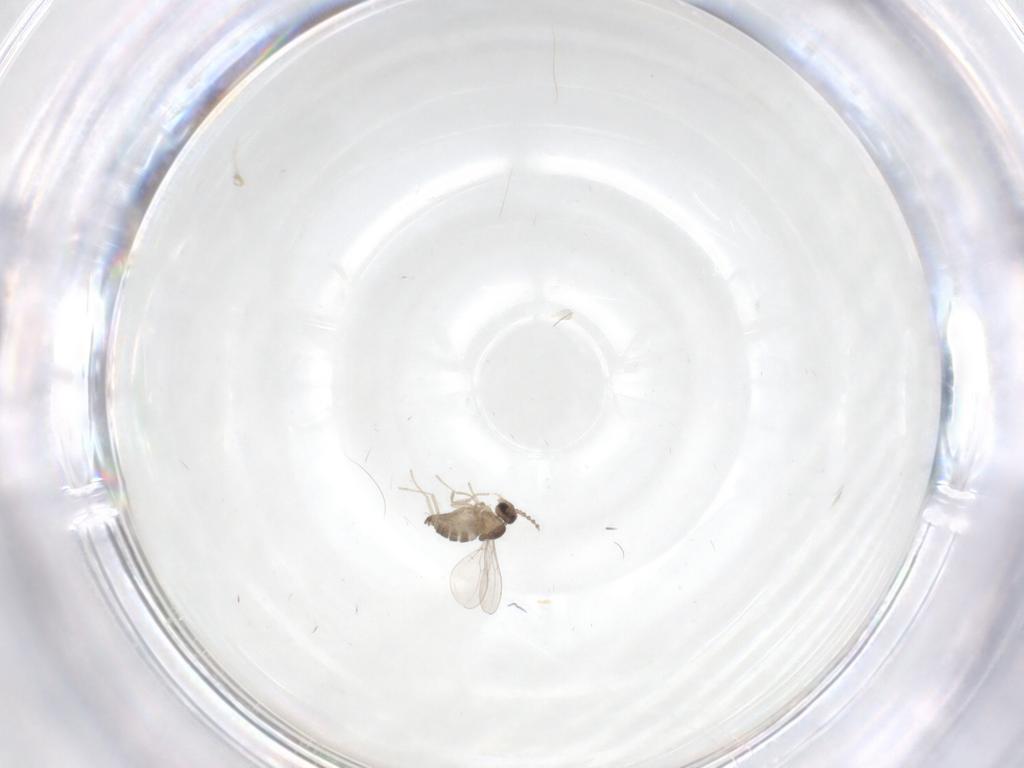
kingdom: Animalia
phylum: Arthropoda
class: Insecta
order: Diptera
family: Cecidomyiidae
